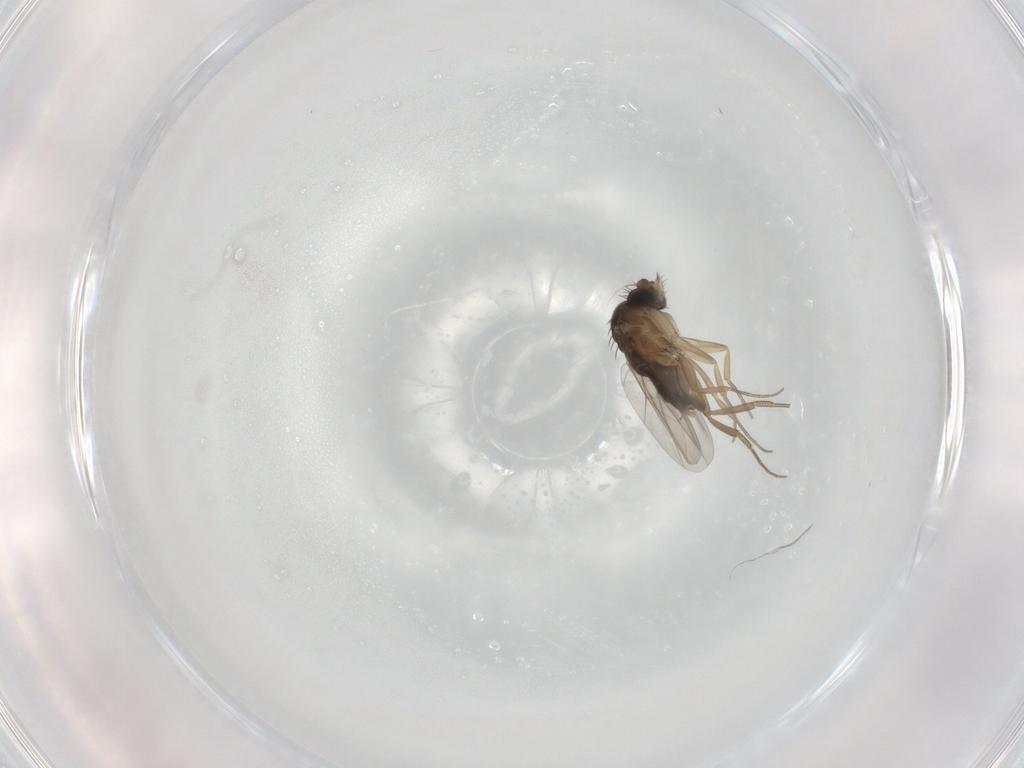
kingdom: Animalia
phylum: Arthropoda
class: Insecta
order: Diptera
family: Phoridae
